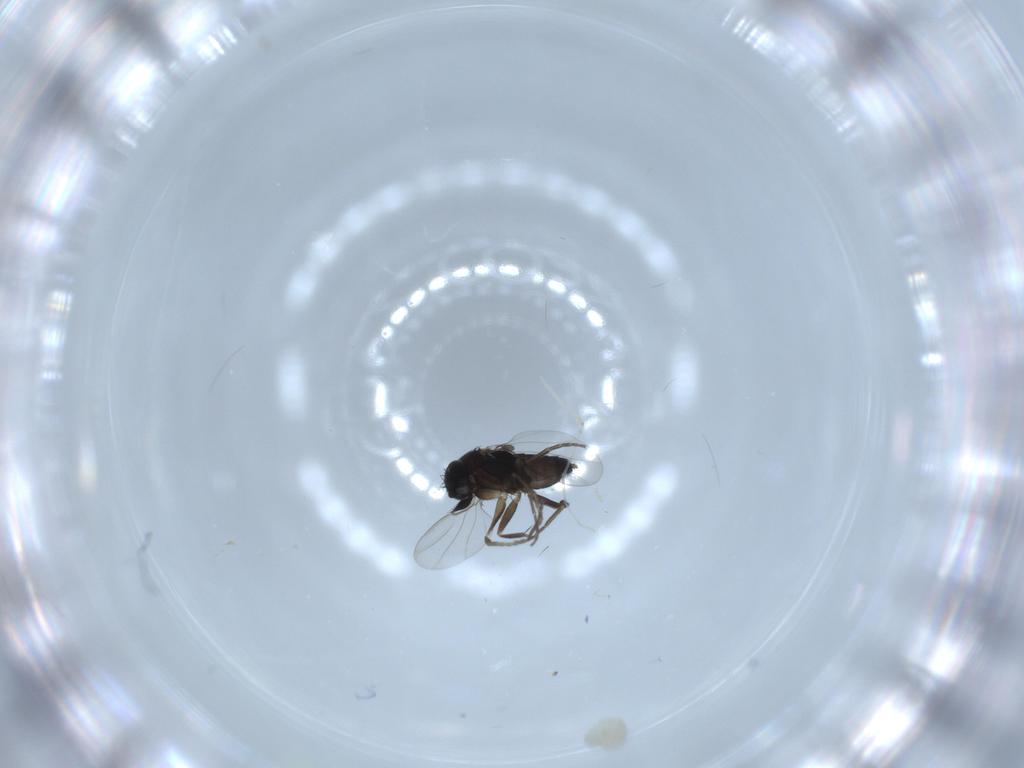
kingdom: Animalia
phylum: Arthropoda
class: Insecta
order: Diptera
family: Phoridae
